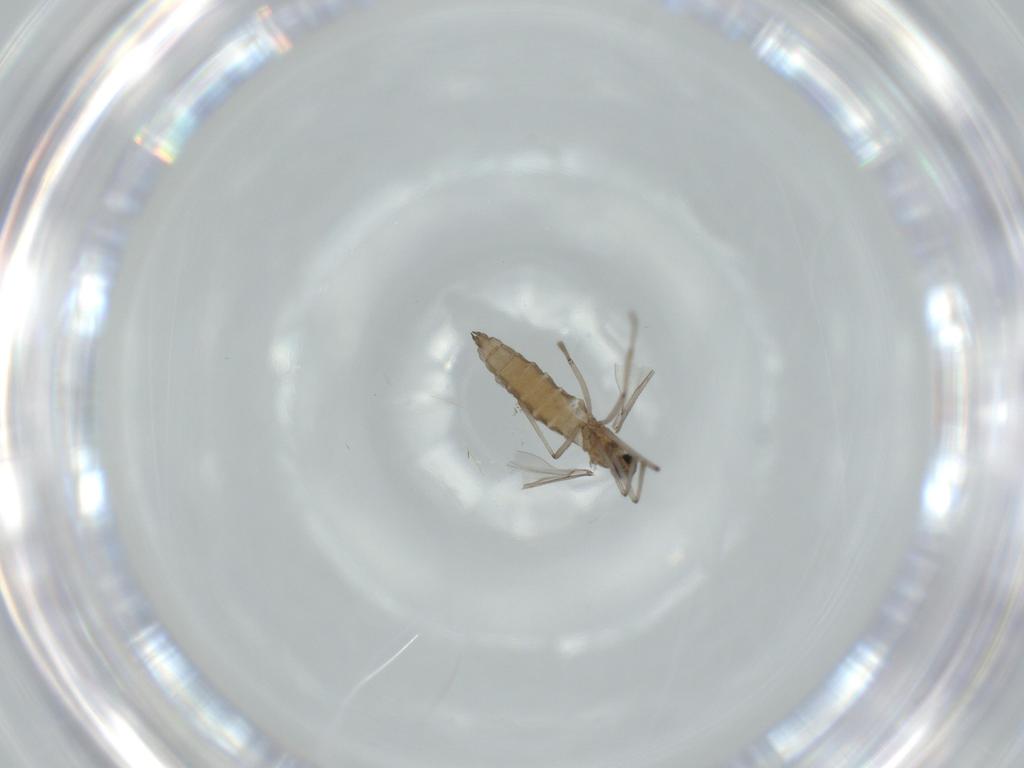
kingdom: Animalia
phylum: Arthropoda
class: Insecta
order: Diptera
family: Cecidomyiidae
